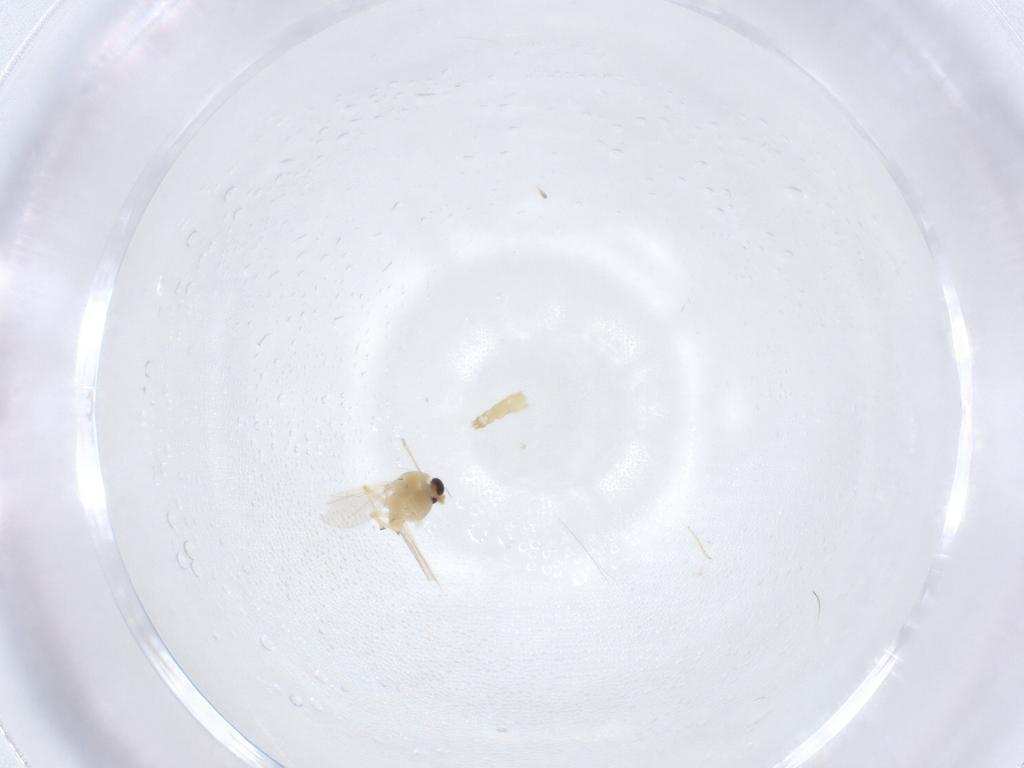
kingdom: Animalia
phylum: Arthropoda
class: Insecta
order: Diptera
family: Chironomidae
